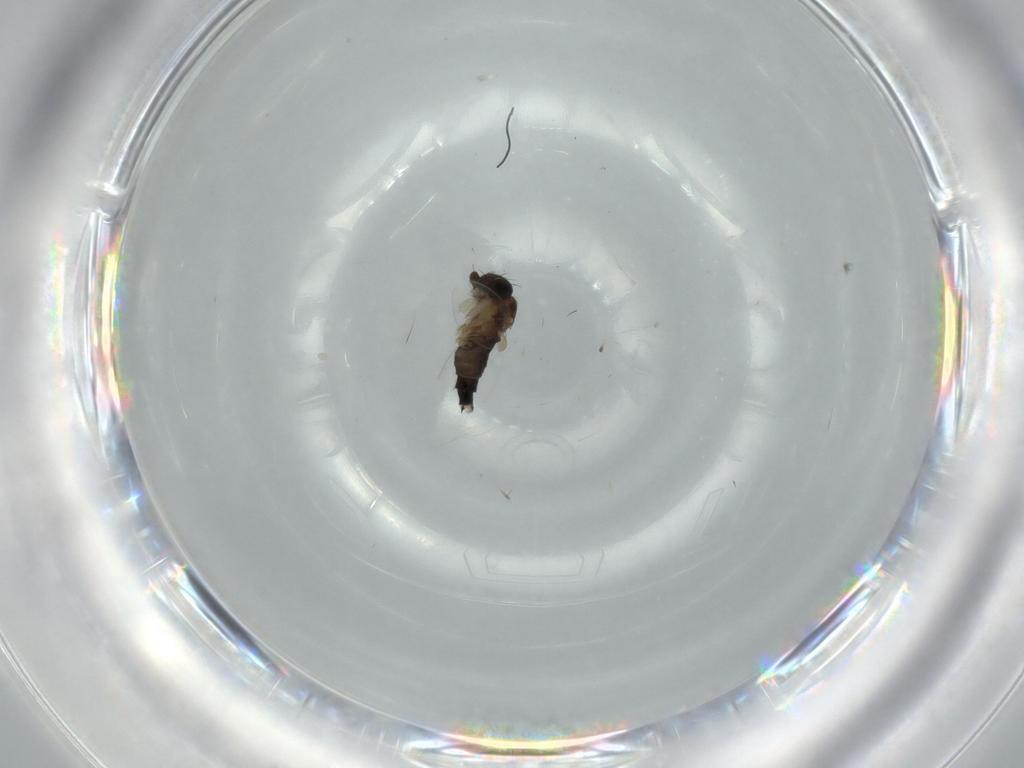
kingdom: Animalia
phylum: Arthropoda
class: Insecta
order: Diptera
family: Phoridae
